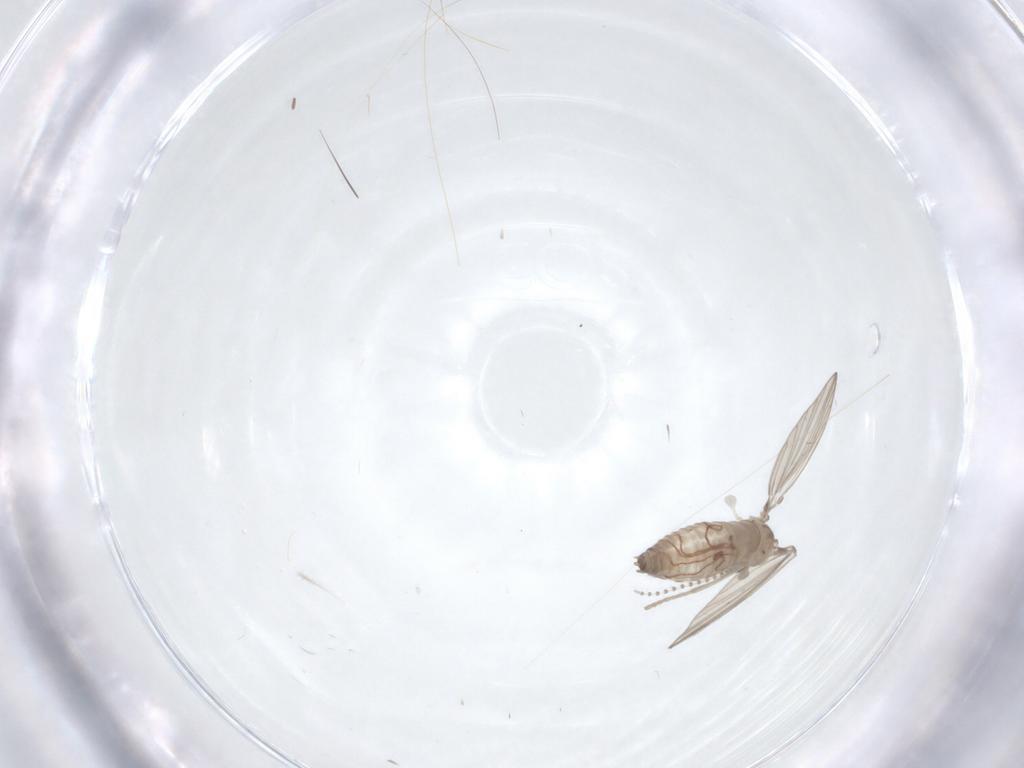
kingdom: Animalia
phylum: Arthropoda
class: Insecta
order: Diptera
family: Psychodidae
